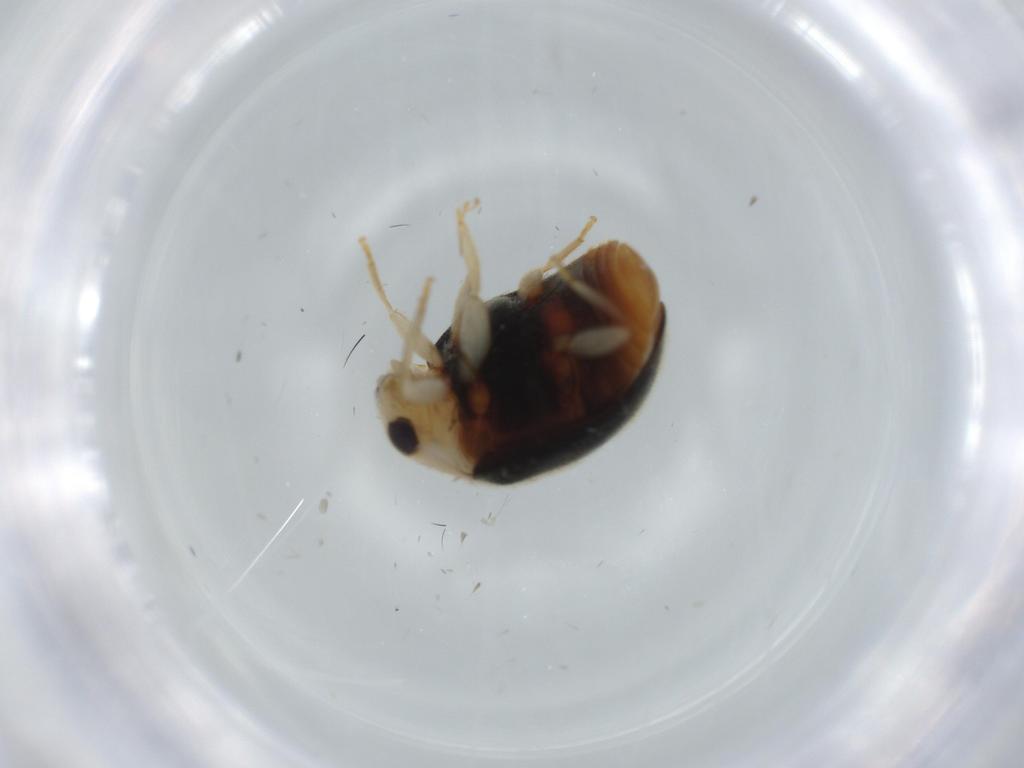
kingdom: Animalia
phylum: Arthropoda
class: Insecta
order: Coleoptera
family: Coccinellidae
